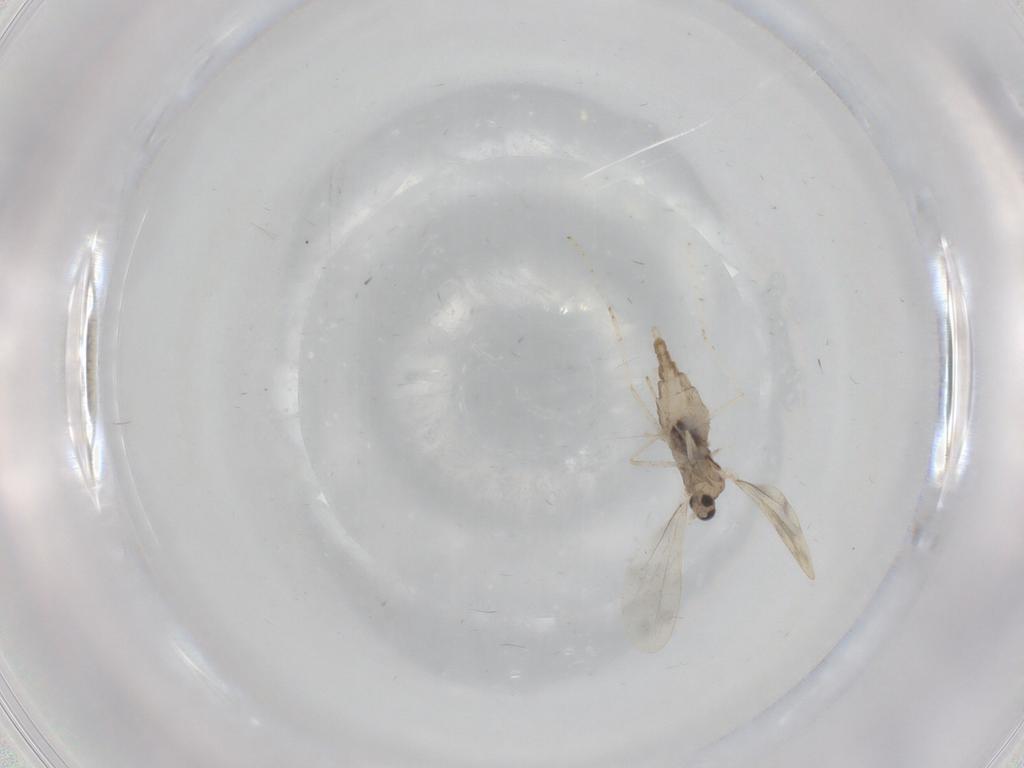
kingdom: Animalia
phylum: Arthropoda
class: Insecta
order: Diptera
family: Cecidomyiidae
